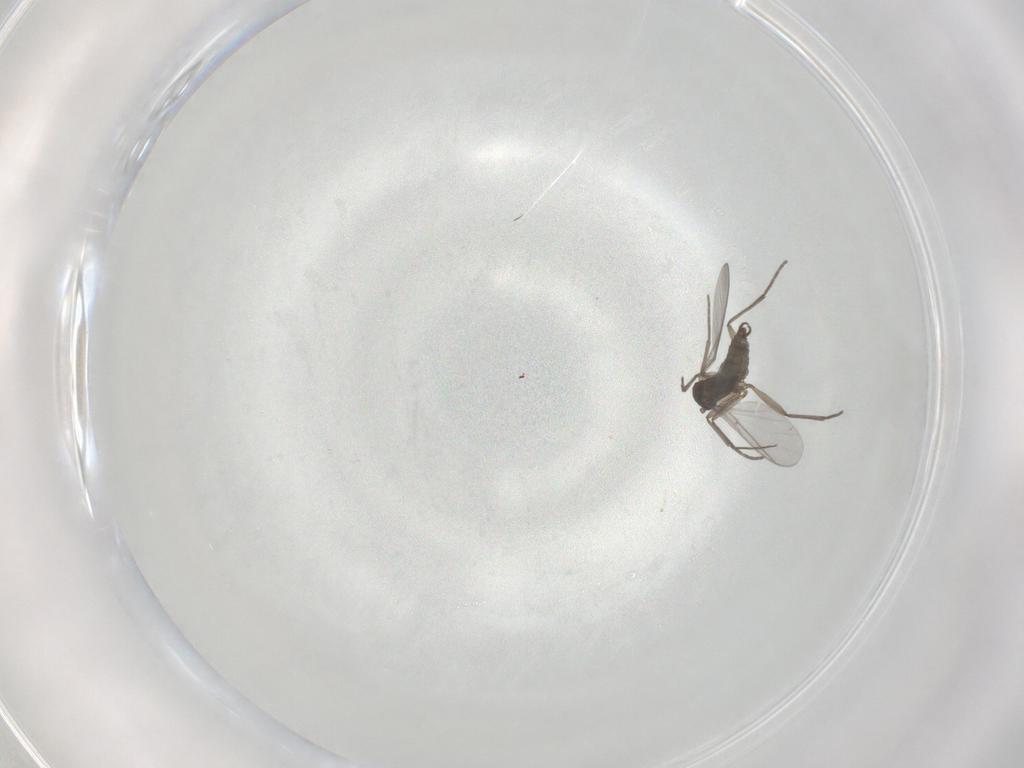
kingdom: Animalia
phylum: Arthropoda
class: Insecta
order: Diptera
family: Sciaridae
